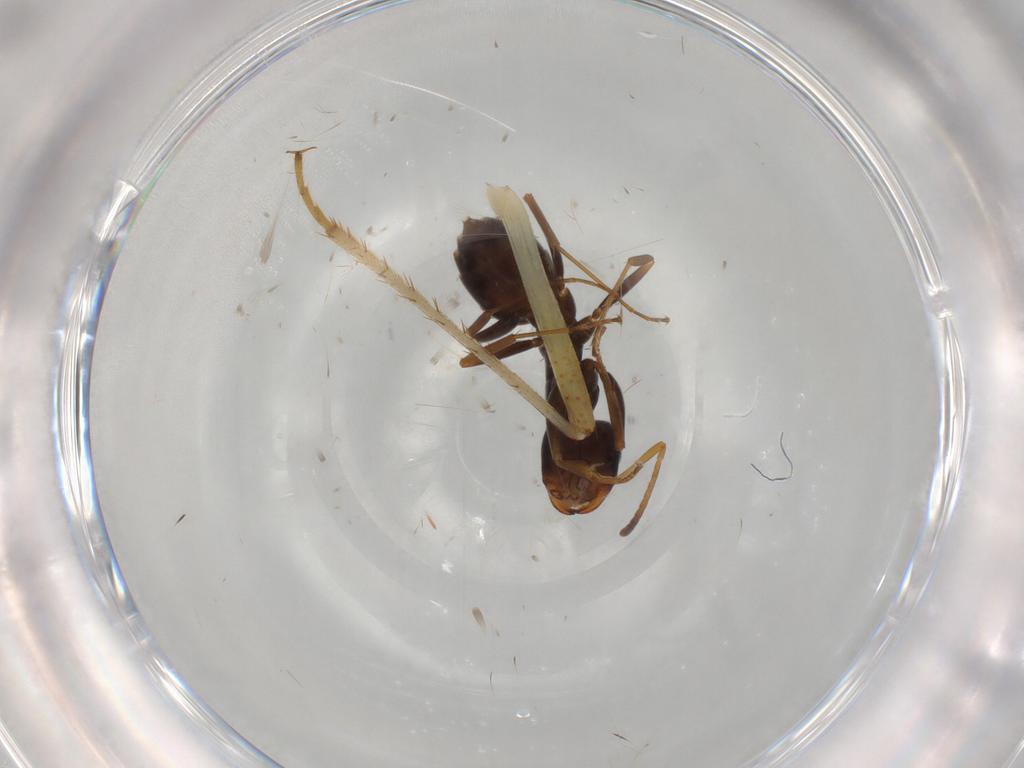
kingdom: Animalia
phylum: Arthropoda
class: Insecta
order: Hymenoptera
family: Formicidae
